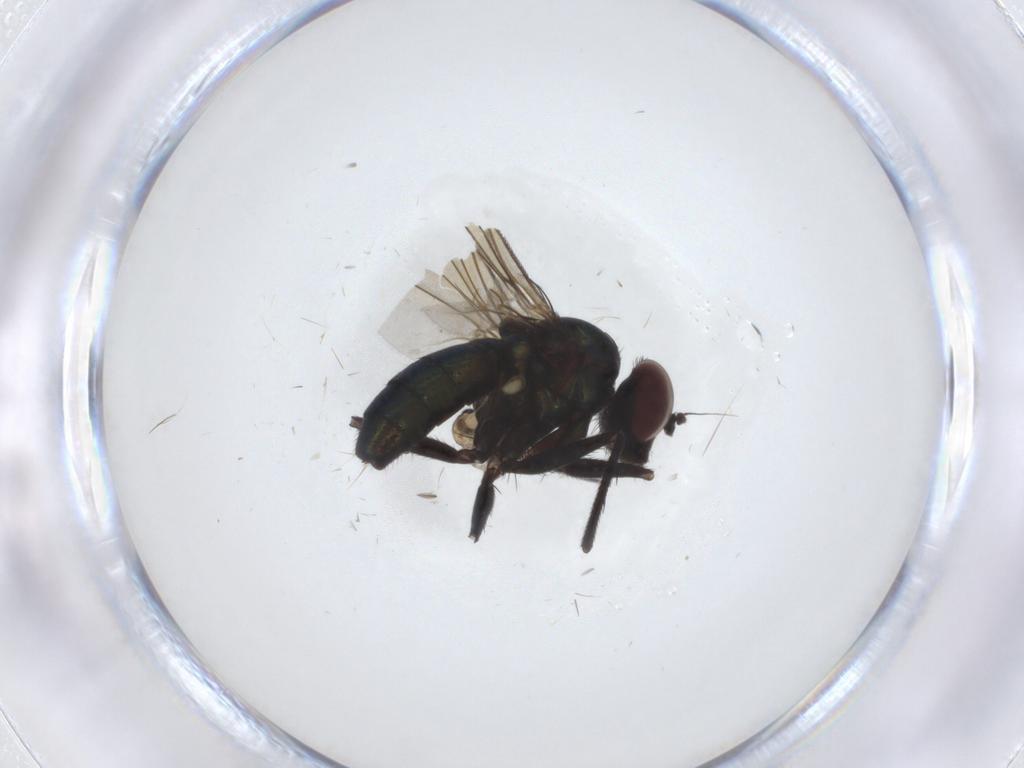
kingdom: Animalia
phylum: Arthropoda
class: Insecta
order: Diptera
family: Dolichopodidae
